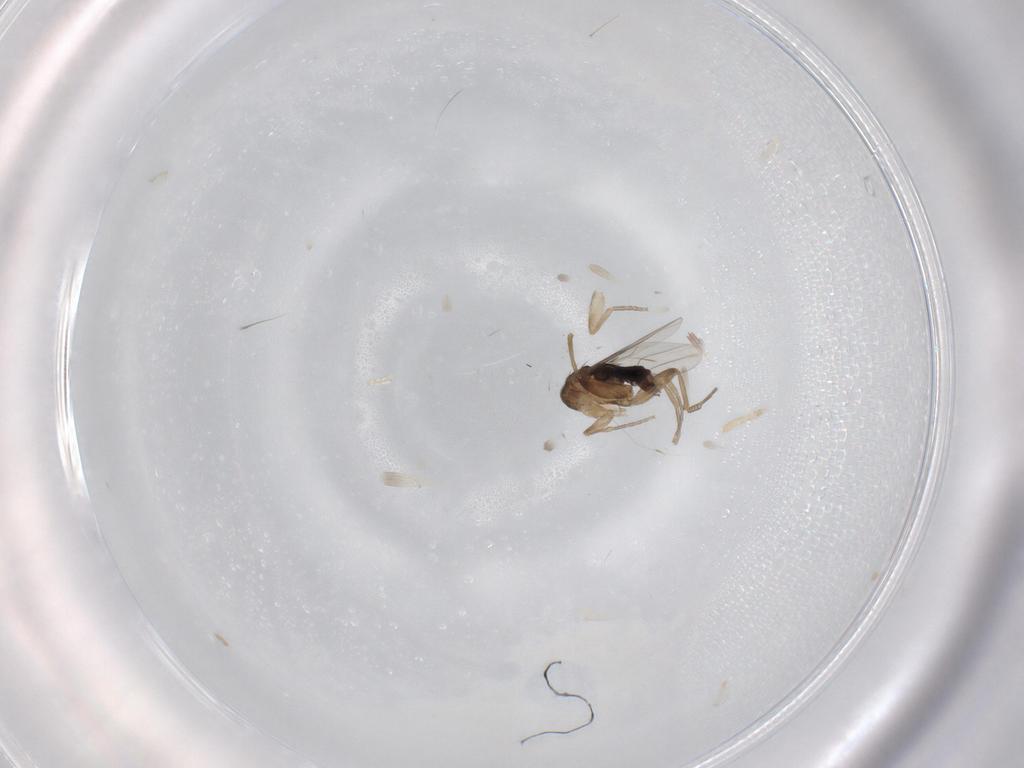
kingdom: Animalia
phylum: Arthropoda
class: Insecta
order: Diptera
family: Phoridae
